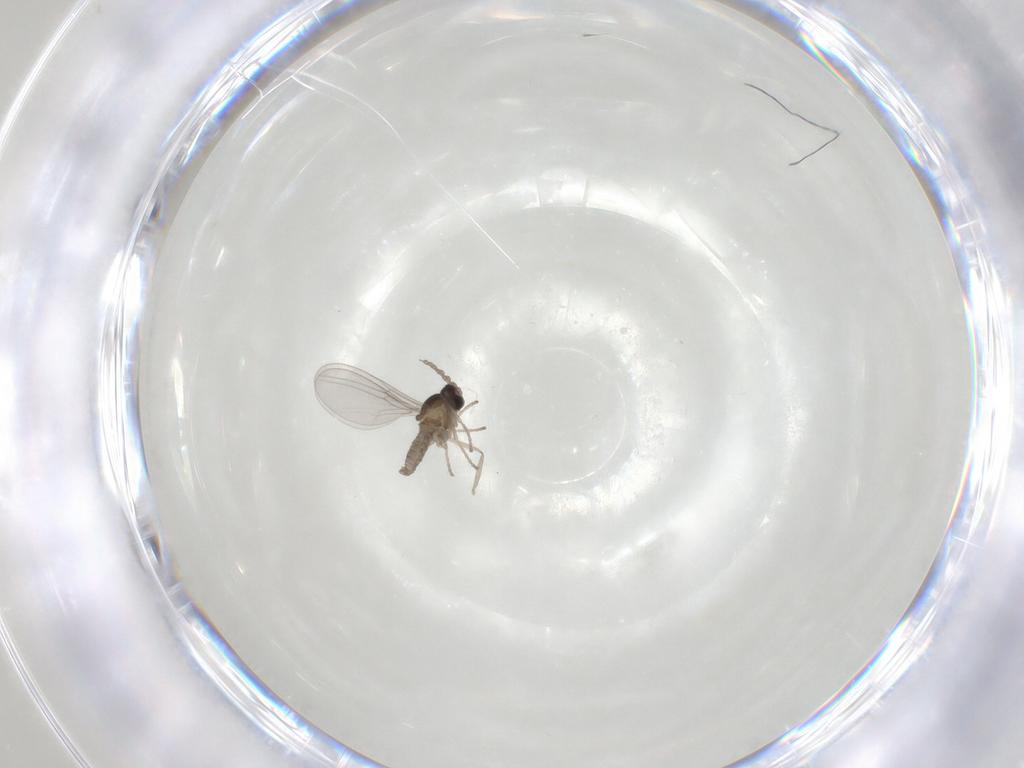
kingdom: Animalia
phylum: Arthropoda
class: Insecta
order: Diptera
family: Cecidomyiidae
